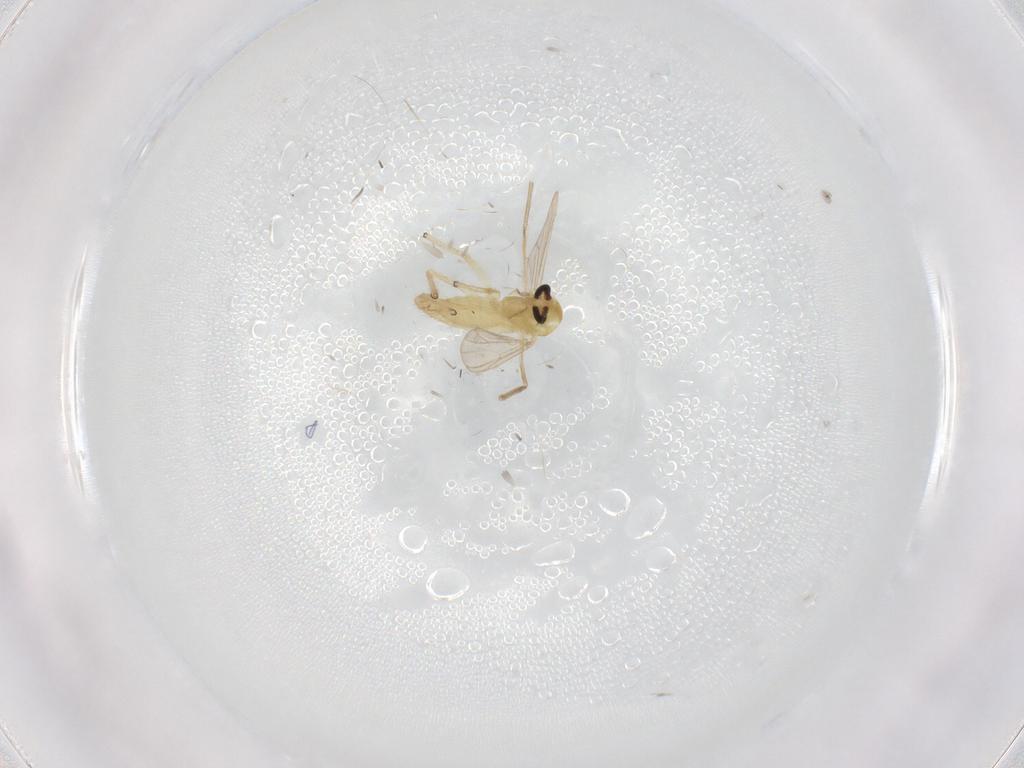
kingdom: Animalia
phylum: Arthropoda
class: Insecta
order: Diptera
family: Chironomidae
